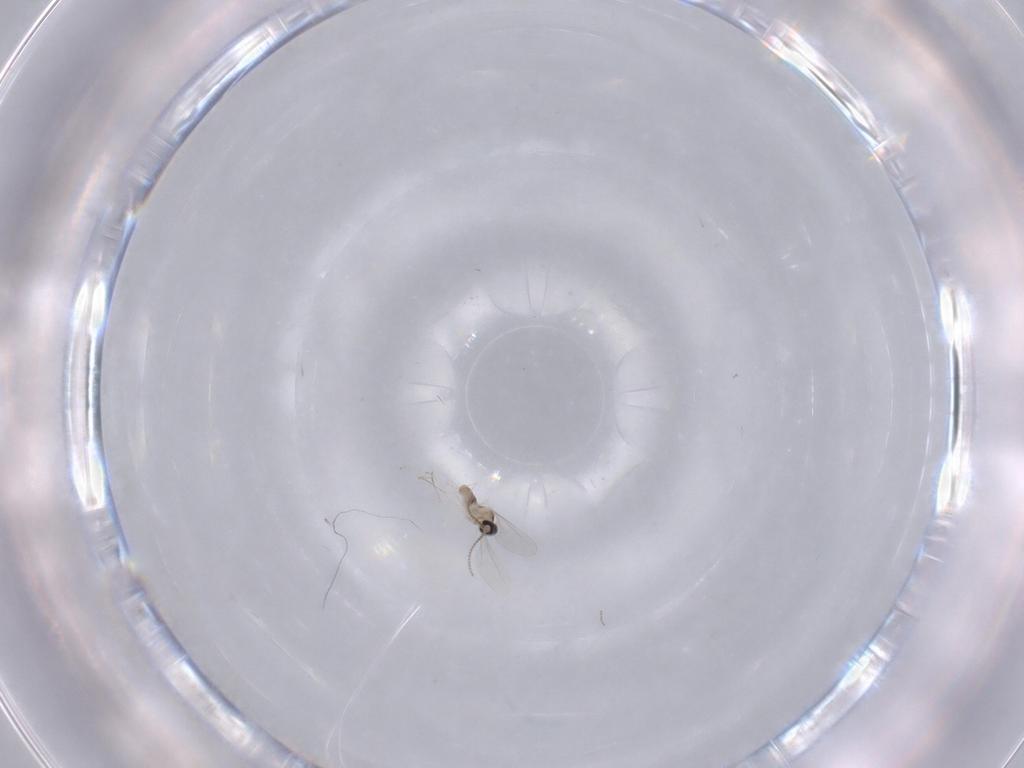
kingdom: Animalia
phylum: Arthropoda
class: Insecta
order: Diptera
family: Cecidomyiidae
